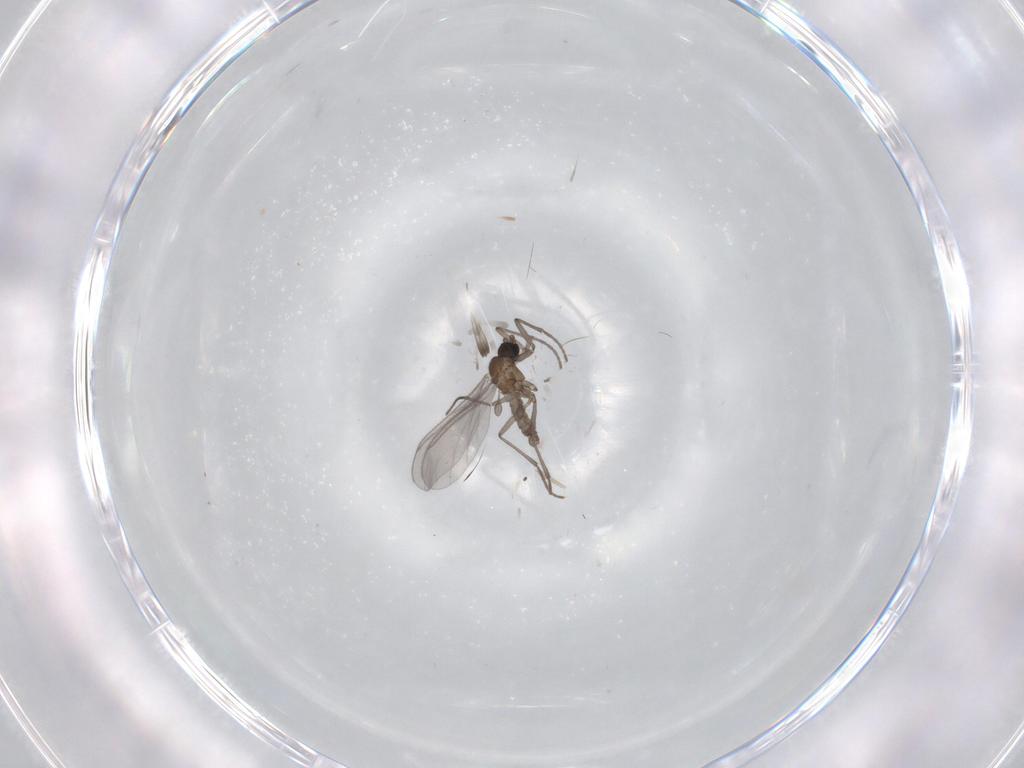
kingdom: Animalia
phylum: Arthropoda
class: Insecta
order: Diptera
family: Sciaridae
